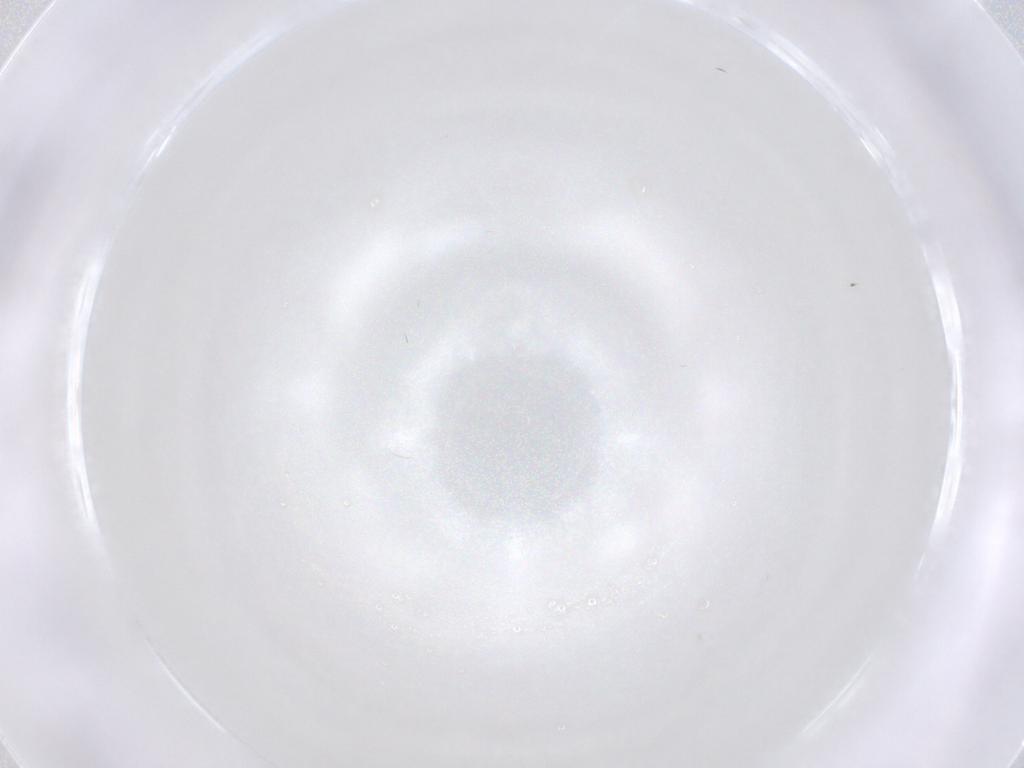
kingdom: Animalia
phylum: Arthropoda
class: Insecta
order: Diptera
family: Cecidomyiidae
